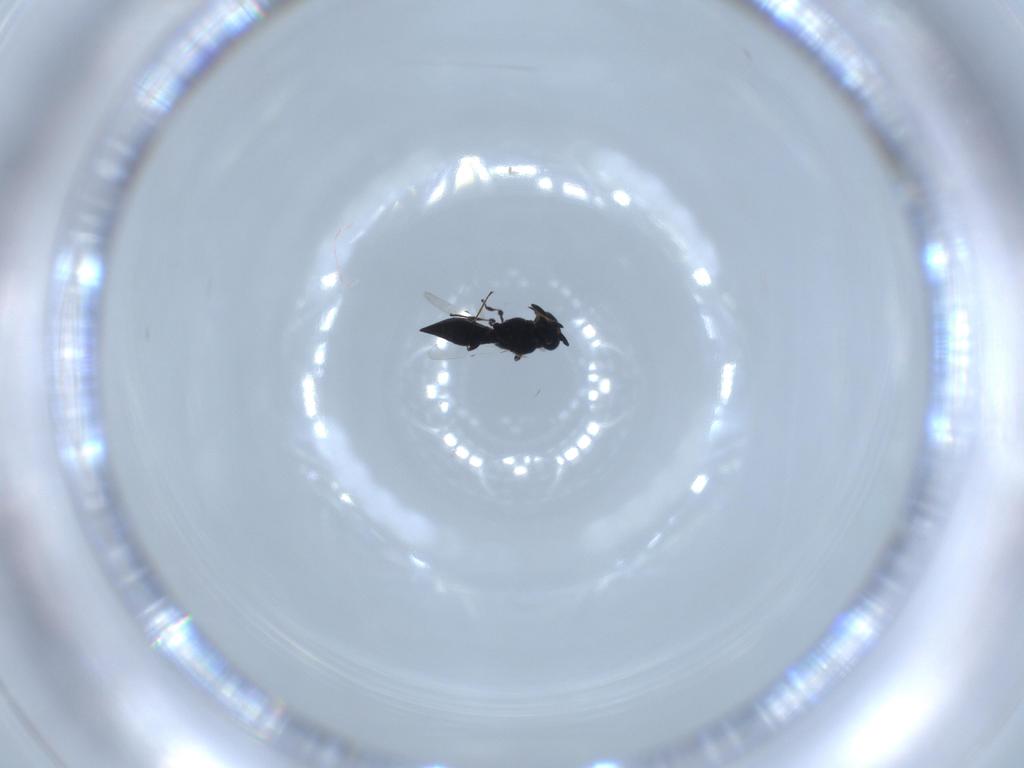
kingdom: Animalia
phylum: Arthropoda
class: Insecta
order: Hymenoptera
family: Platygastridae
